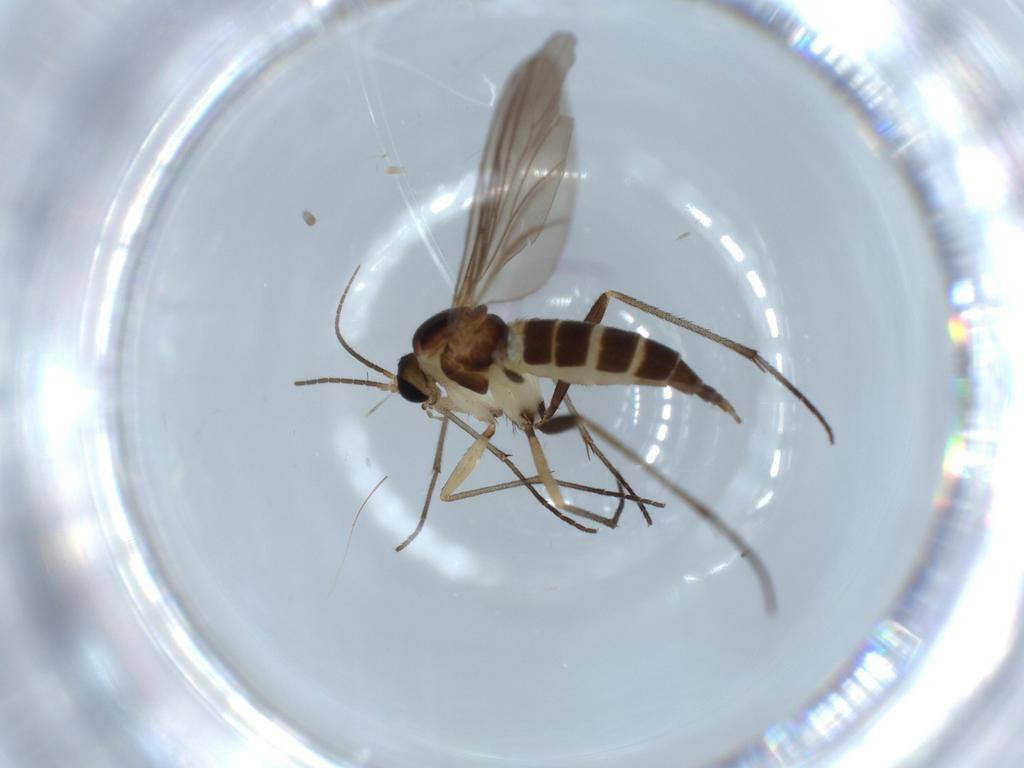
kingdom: Animalia
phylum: Arthropoda
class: Insecta
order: Diptera
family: Sciaridae
